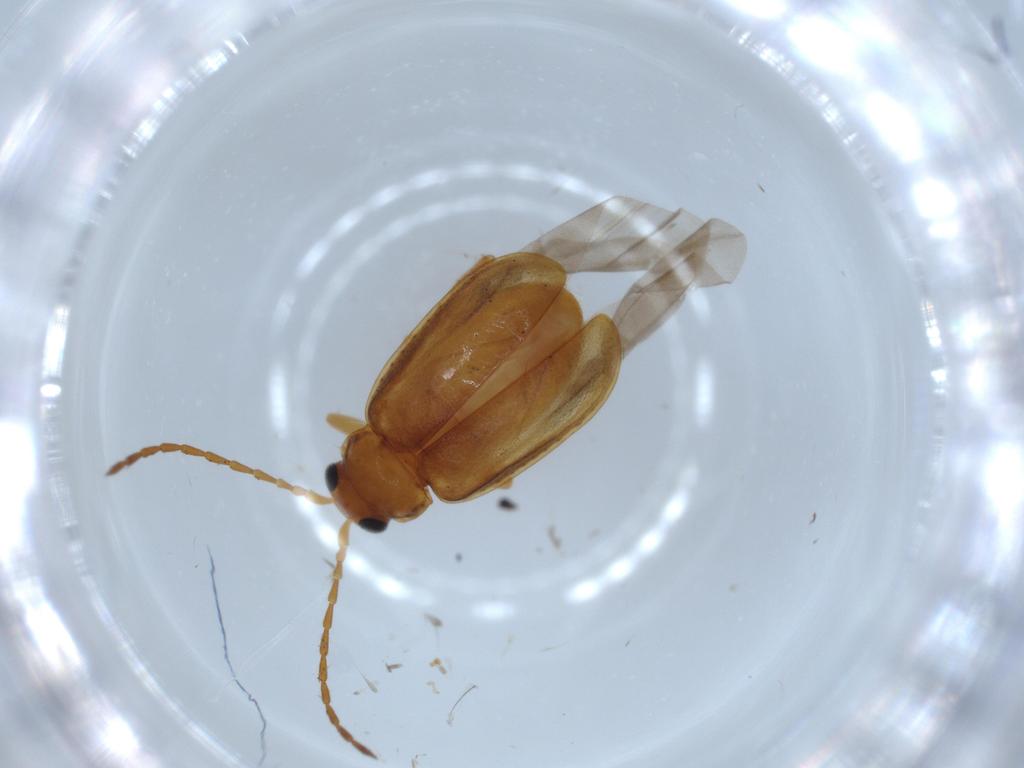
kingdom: Animalia
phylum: Arthropoda
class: Insecta
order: Coleoptera
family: Chrysomelidae
